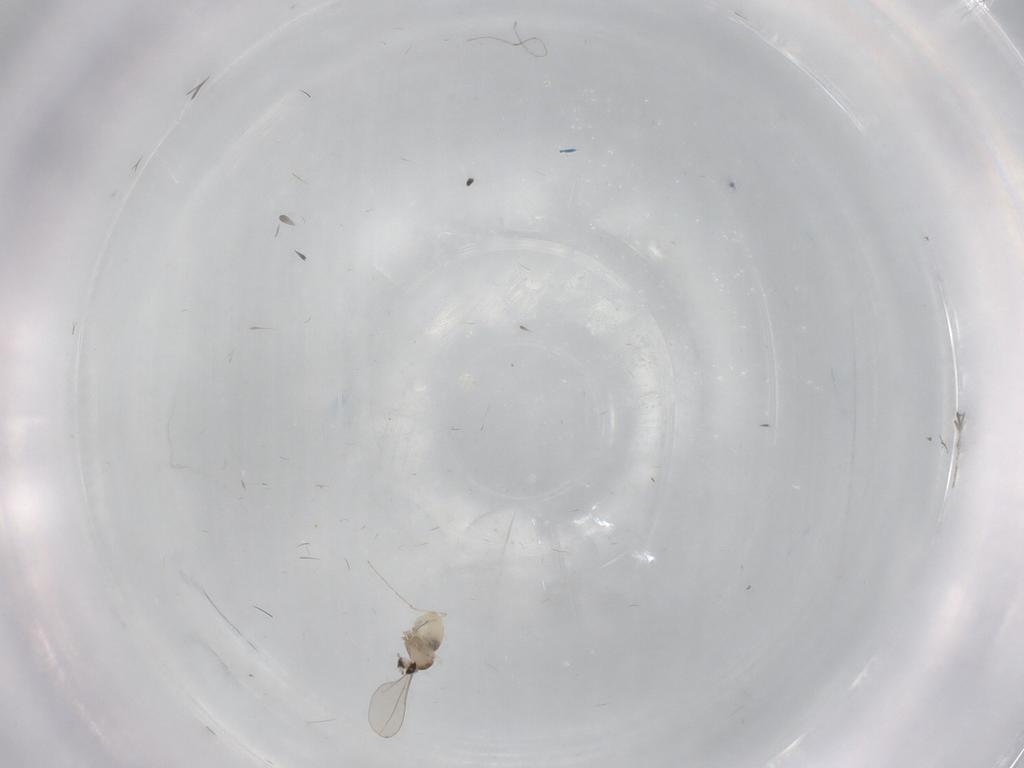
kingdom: Animalia
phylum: Arthropoda
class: Insecta
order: Diptera
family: Cecidomyiidae
